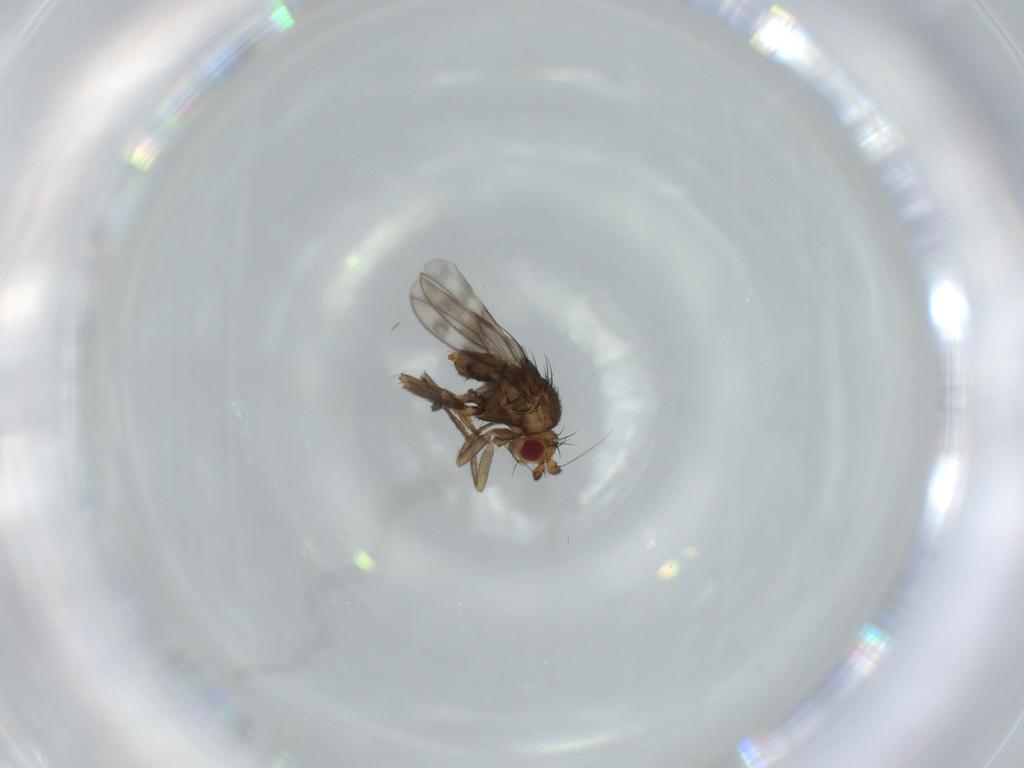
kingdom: Animalia
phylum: Arthropoda
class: Insecta
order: Diptera
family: Sphaeroceridae
